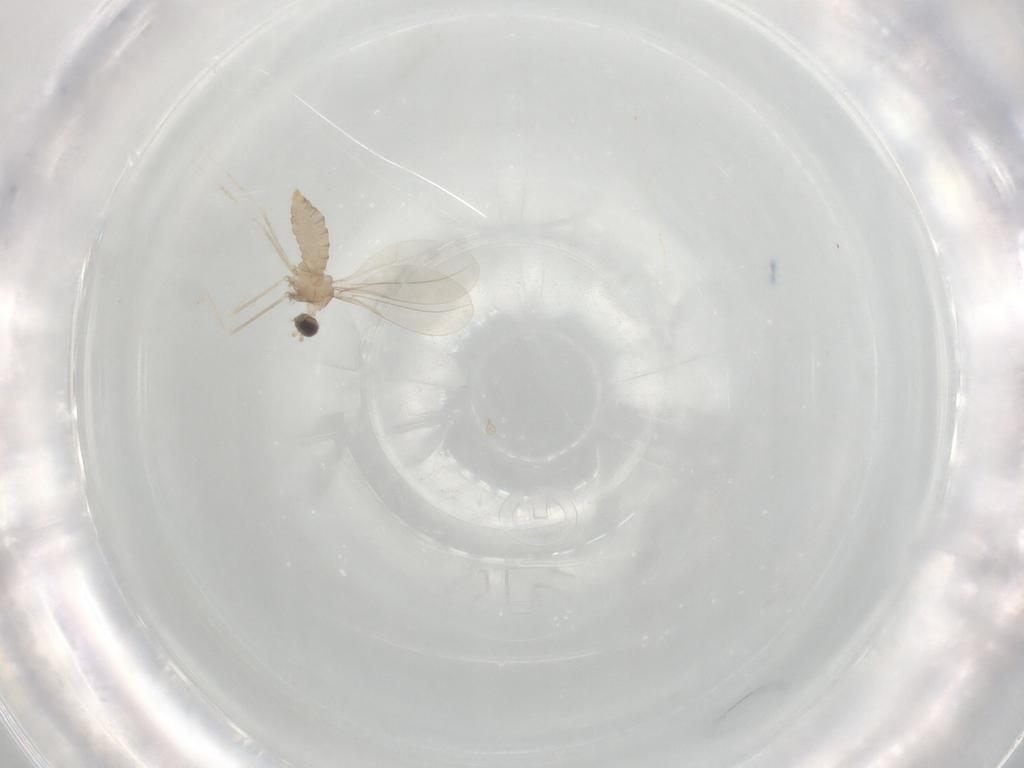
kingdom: Animalia
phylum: Arthropoda
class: Insecta
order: Diptera
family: Cecidomyiidae
